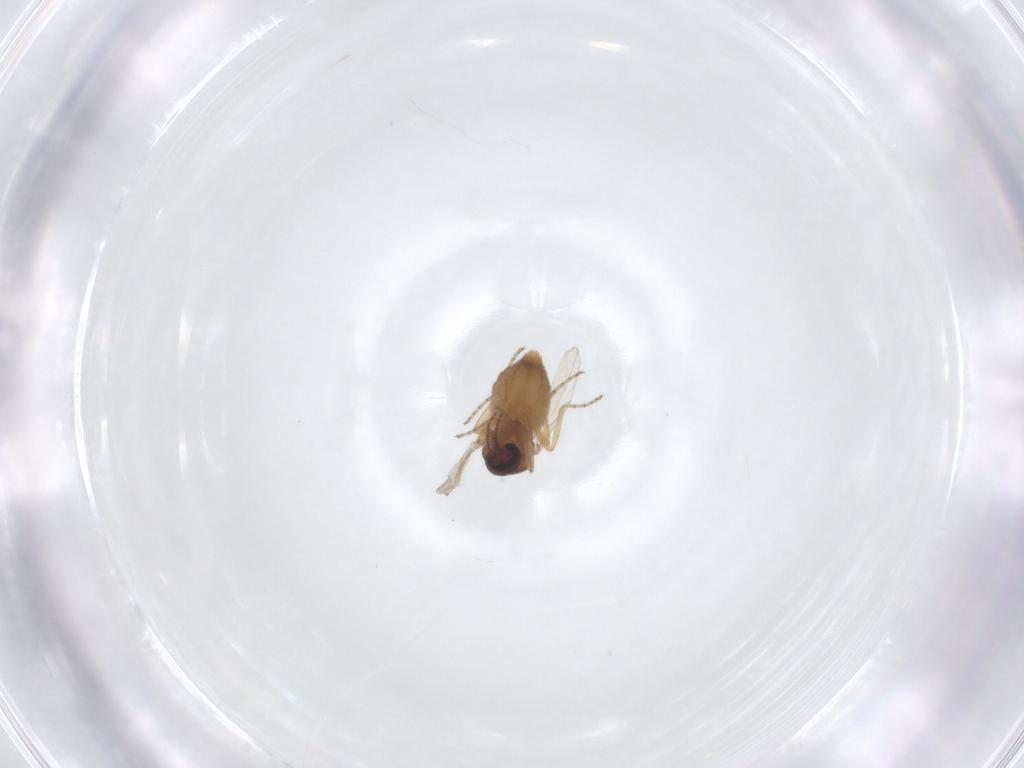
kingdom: Animalia
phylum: Arthropoda
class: Insecta
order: Diptera
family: Ceratopogonidae
